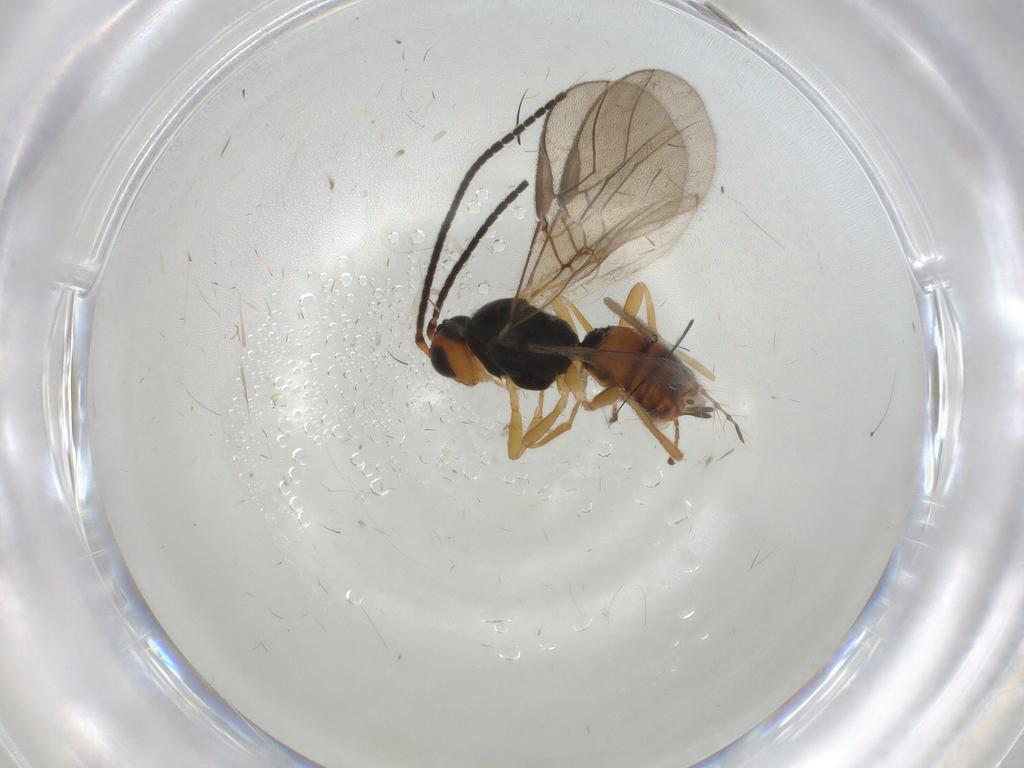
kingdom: Animalia
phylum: Arthropoda
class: Insecta
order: Hymenoptera
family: Braconidae
